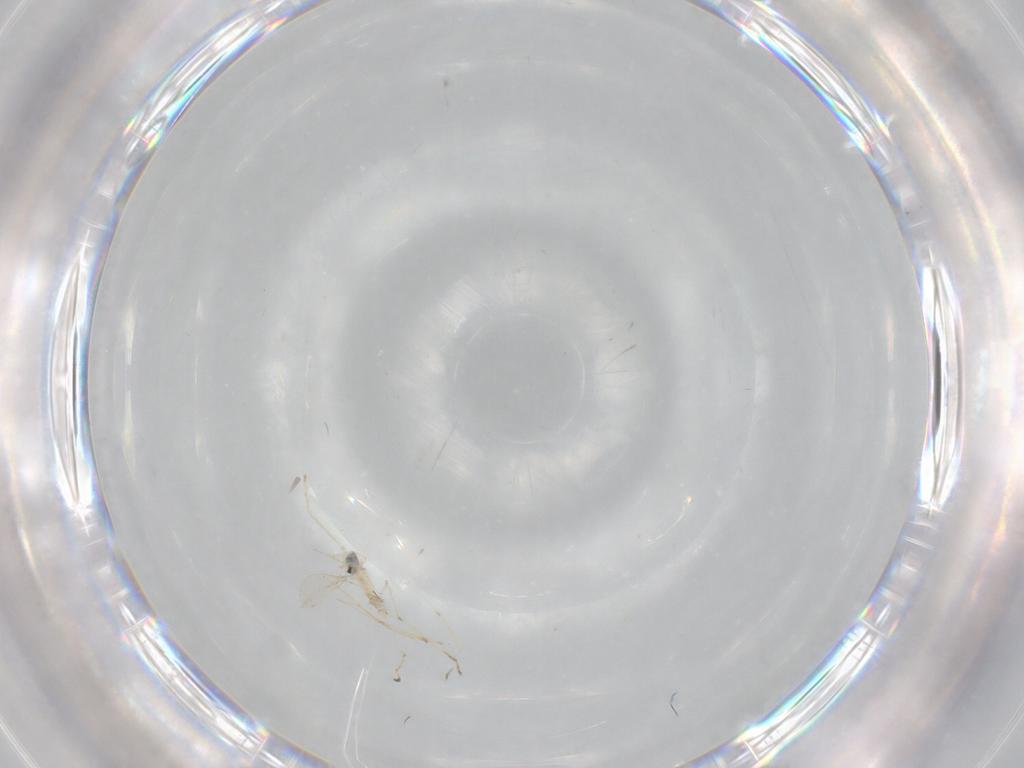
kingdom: Animalia
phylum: Arthropoda
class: Insecta
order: Diptera
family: Cecidomyiidae
